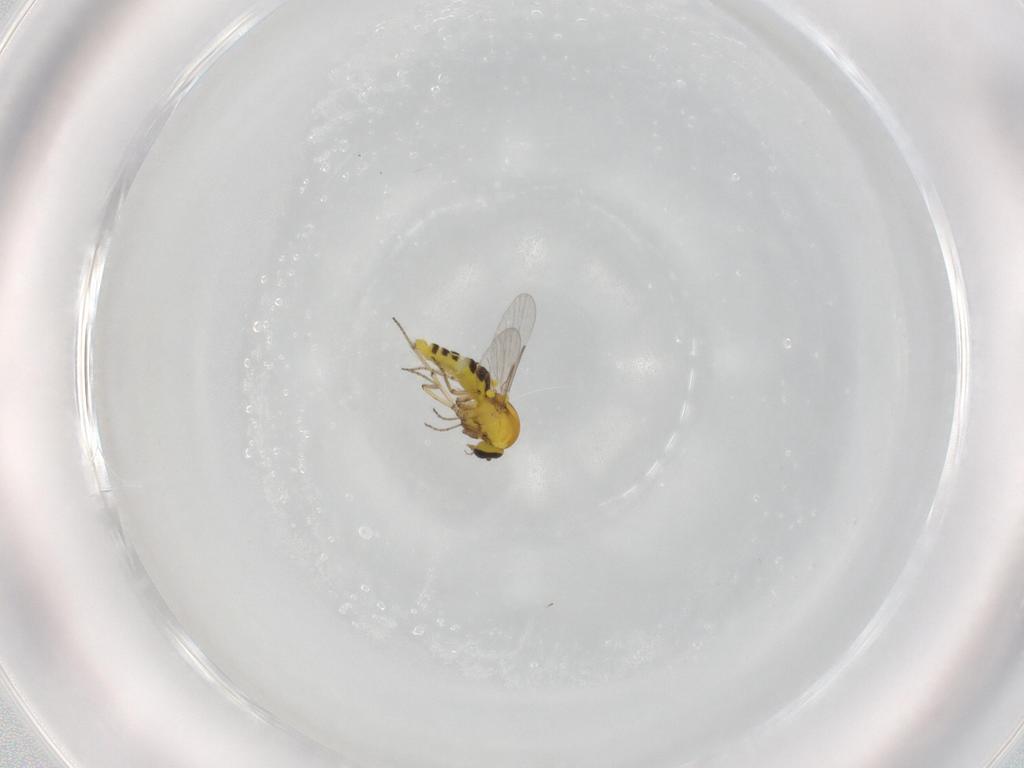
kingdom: Animalia
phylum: Arthropoda
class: Insecta
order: Diptera
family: Ceratopogonidae
